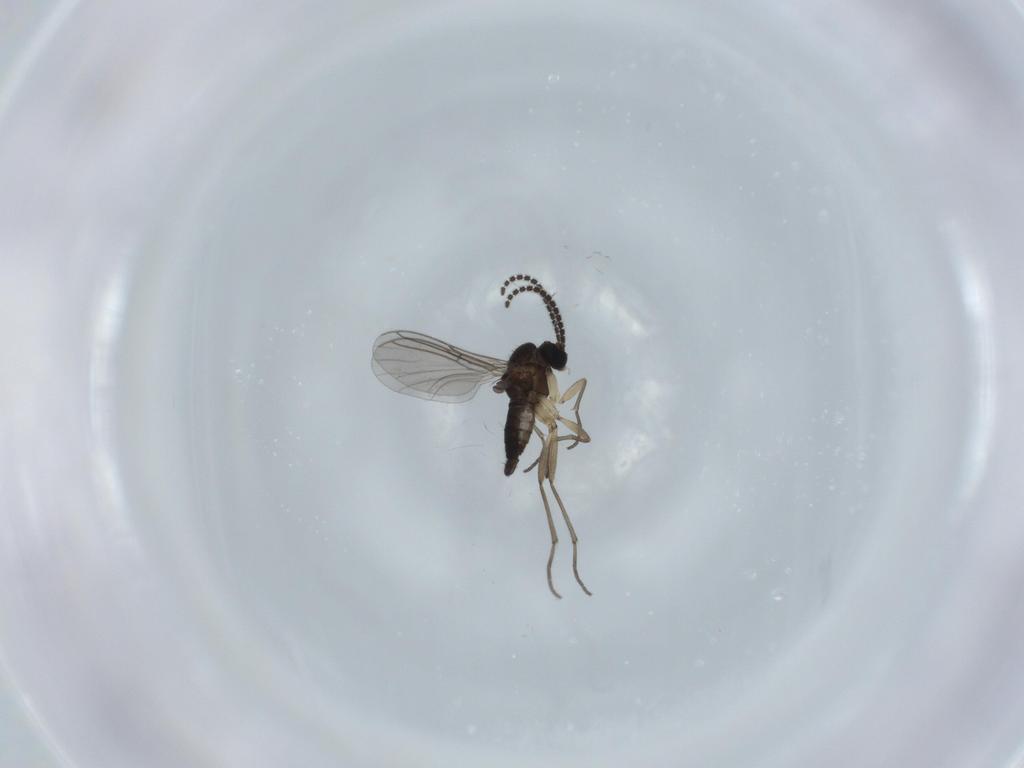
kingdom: Animalia
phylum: Arthropoda
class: Insecta
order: Diptera
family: Sciaridae
